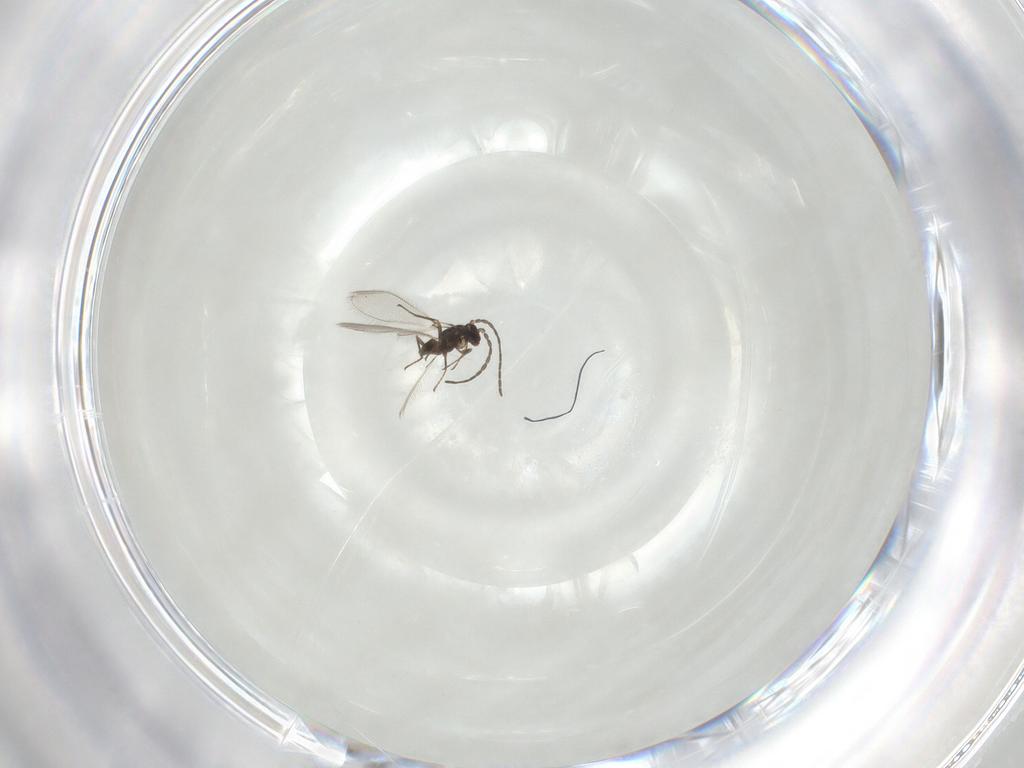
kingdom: Animalia
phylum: Arthropoda
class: Insecta
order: Hymenoptera
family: Mymaridae
